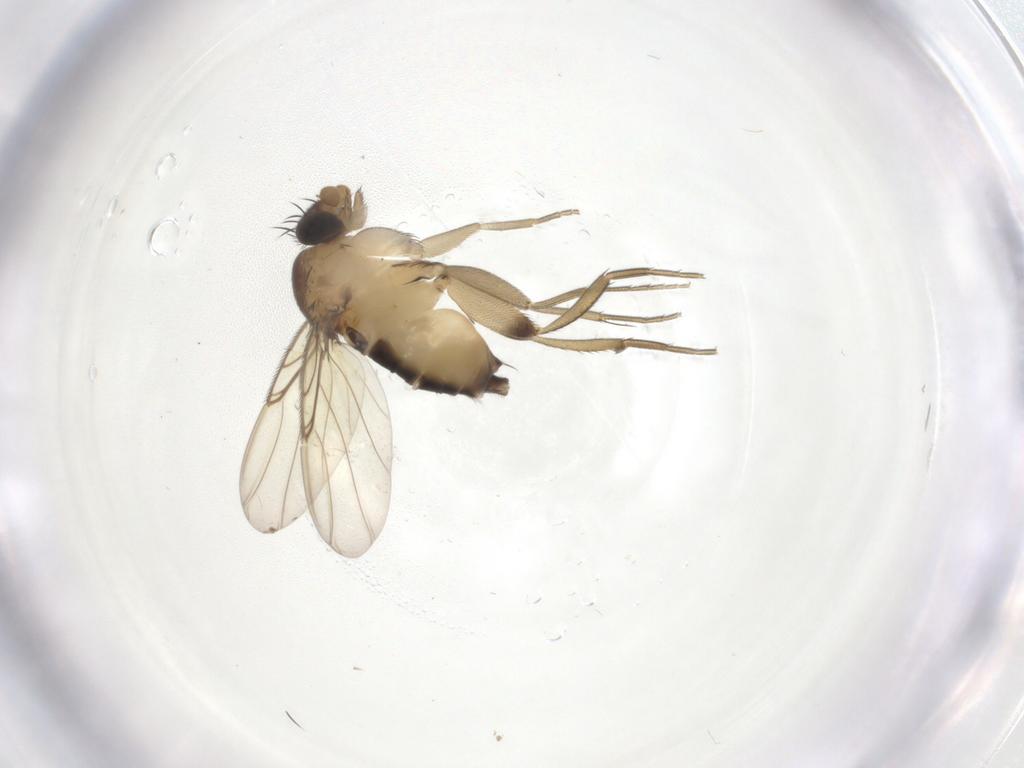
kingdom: Animalia
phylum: Arthropoda
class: Insecta
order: Diptera
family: Phoridae
